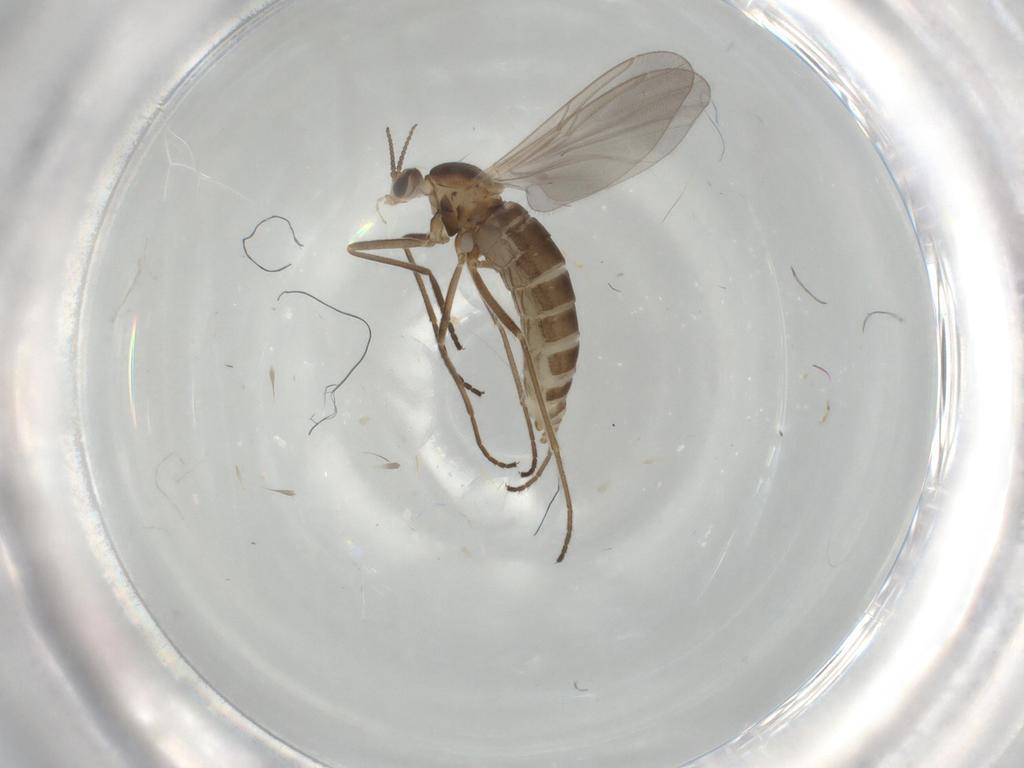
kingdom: Animalia
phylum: Arthropoda
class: Insecta
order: Diptera
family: Cecidomyiidae
